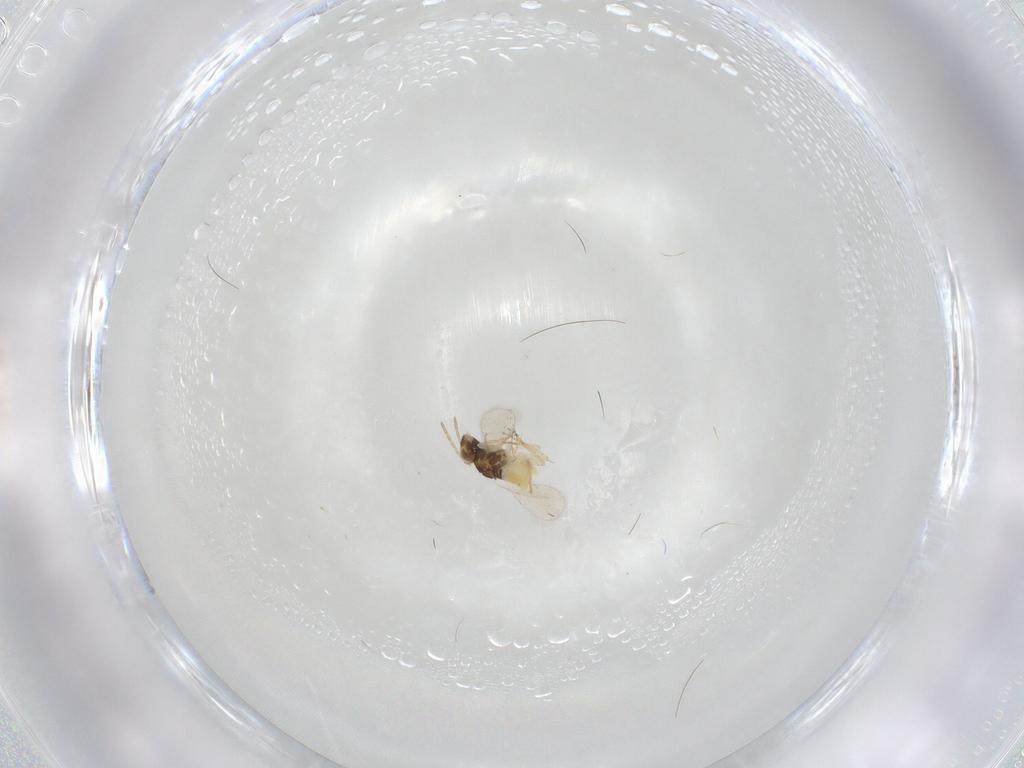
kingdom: Animalia
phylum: Arthropoda
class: Insecta
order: Hymenoptera
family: Aphelinidae
